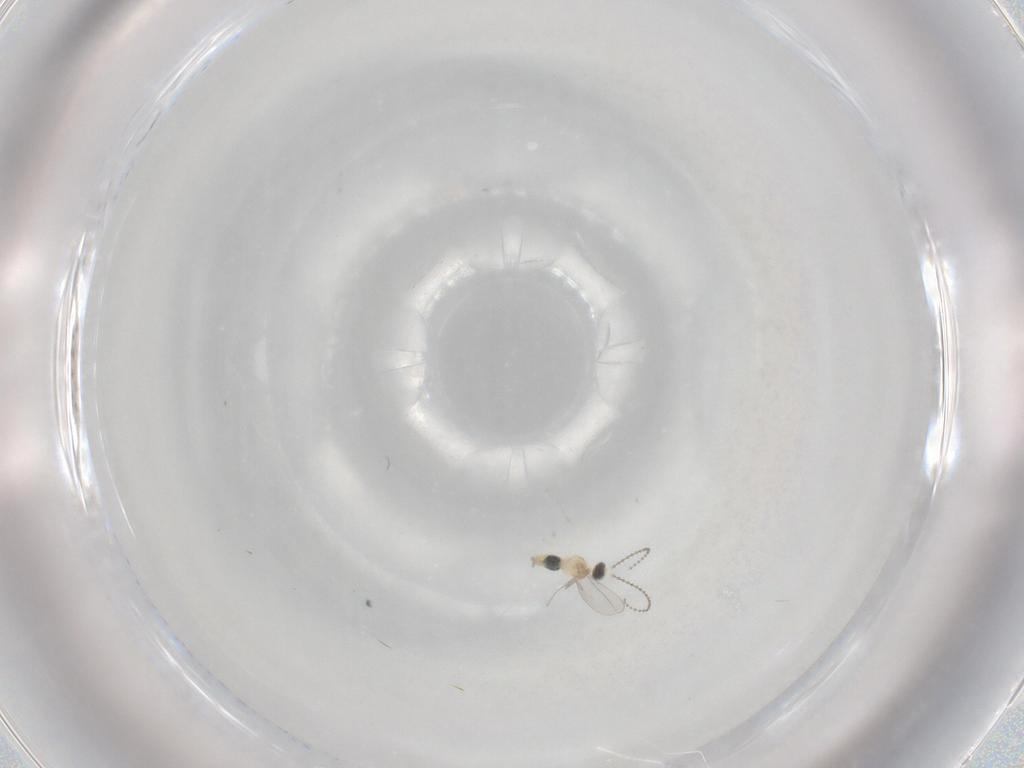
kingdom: Animalia
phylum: Arthropoda
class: Insecta
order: Diptera
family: Cecidomyiidae
